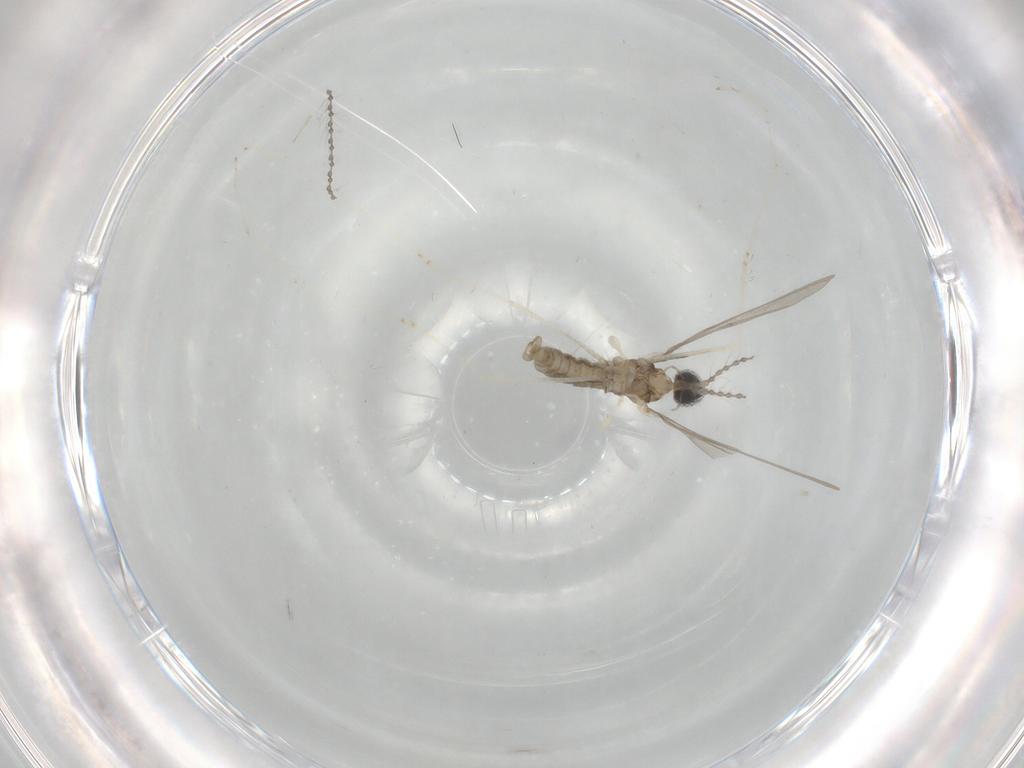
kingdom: Animalia
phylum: Arthropoda
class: Insecta
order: Diptera
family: Cecidomyiidae
